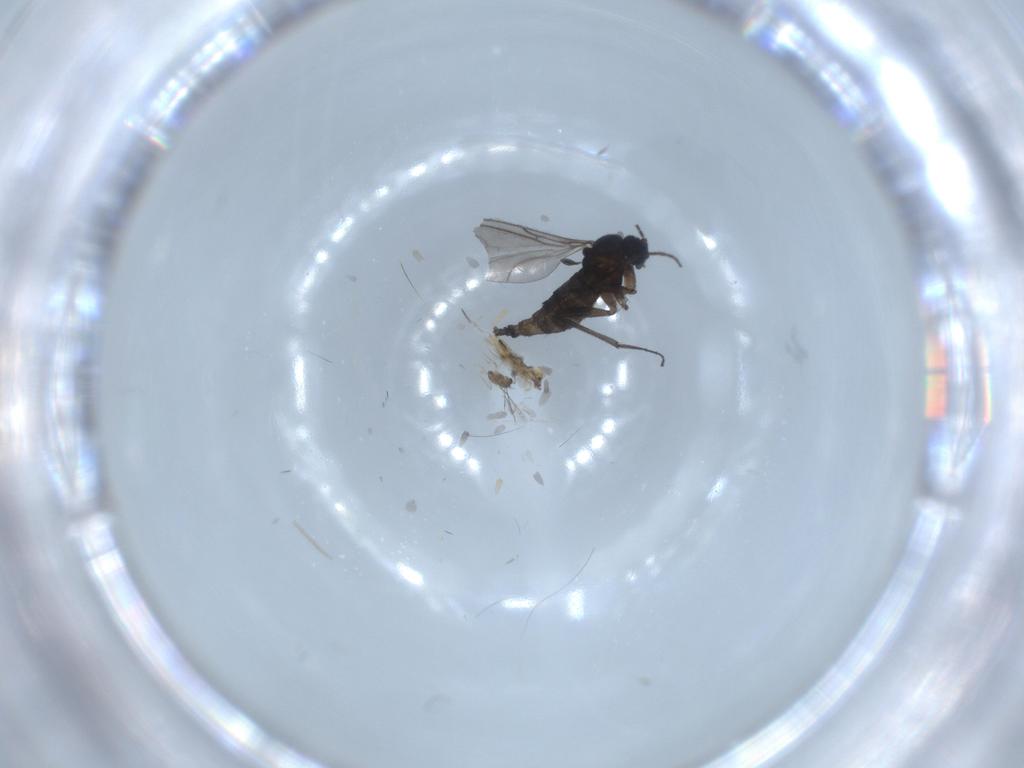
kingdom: Animalia
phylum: Arthropoda
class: Insecta
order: Diptera
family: Sciaridae
